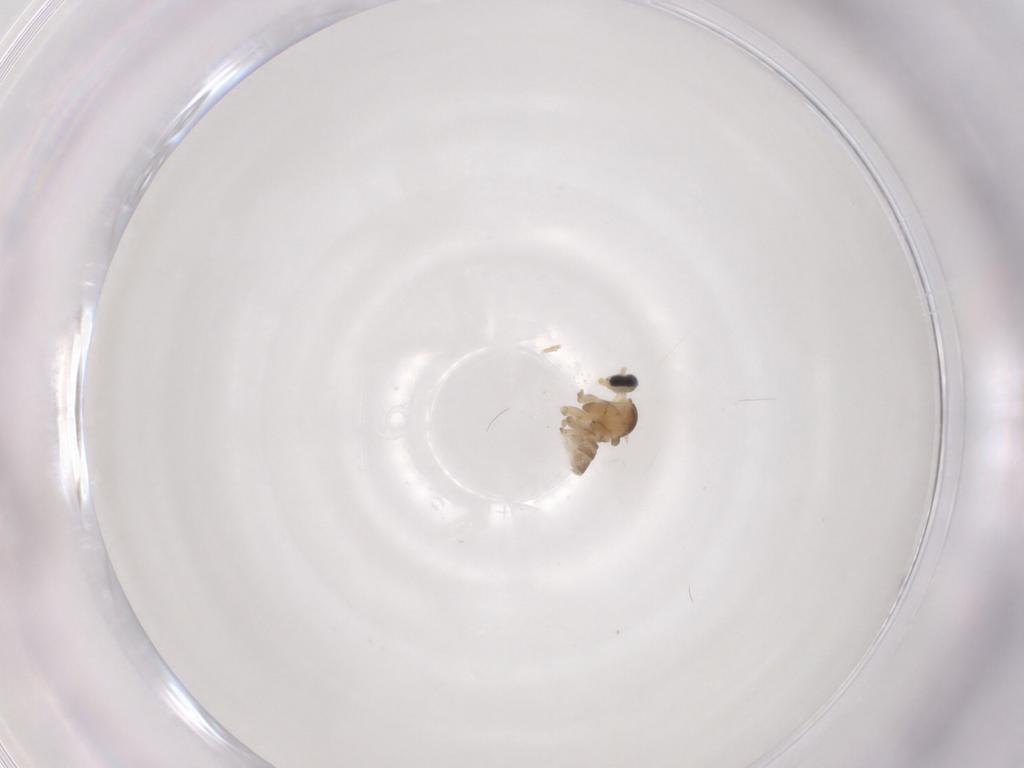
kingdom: Animalia
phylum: Arthropoda
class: Insecta
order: Diptera
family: Cecidomyiidae
